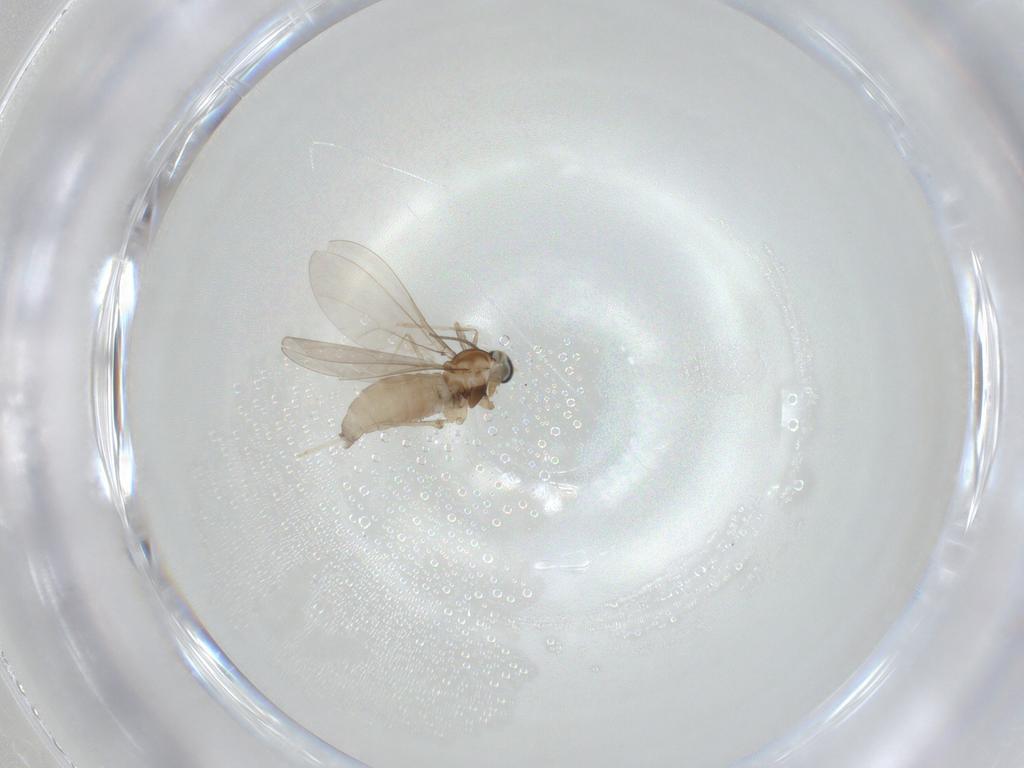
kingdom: Animalia
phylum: Arthropoda
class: Insecta
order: Diptera
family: Cecidomyiidae
